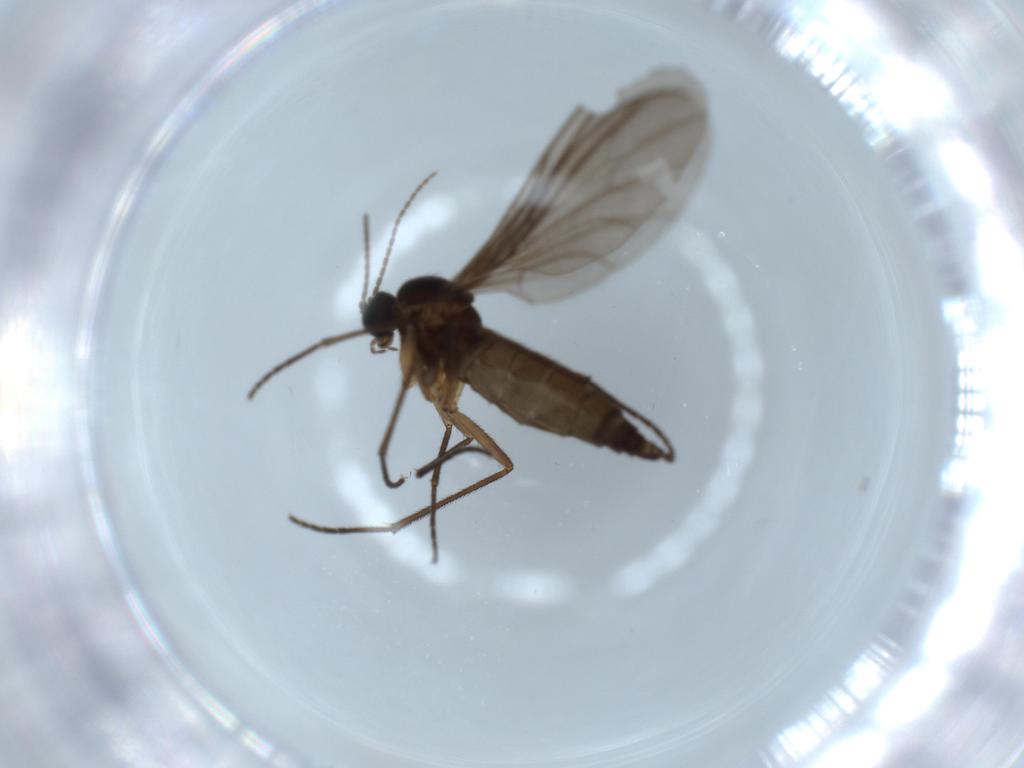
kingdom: Animalia
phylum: Arthropoda
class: Insecta
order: Diptera
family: Sciaridae
